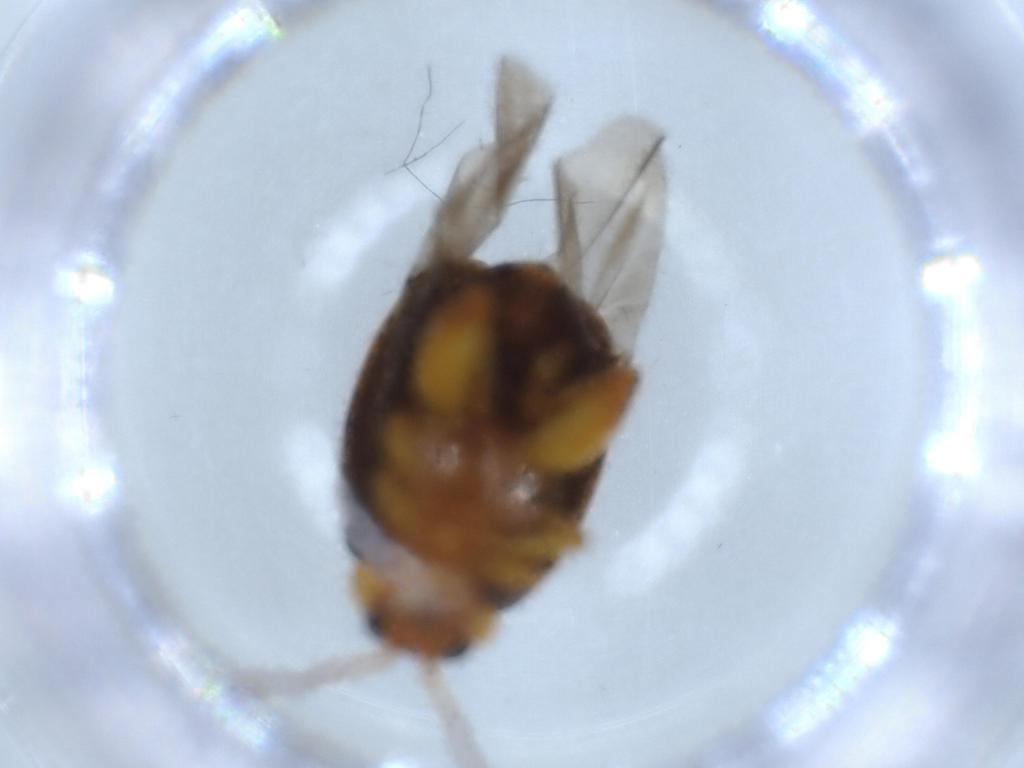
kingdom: Animalia
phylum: Arthropoda
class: Insecta
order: Coleoptera
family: Chrysomelidae
